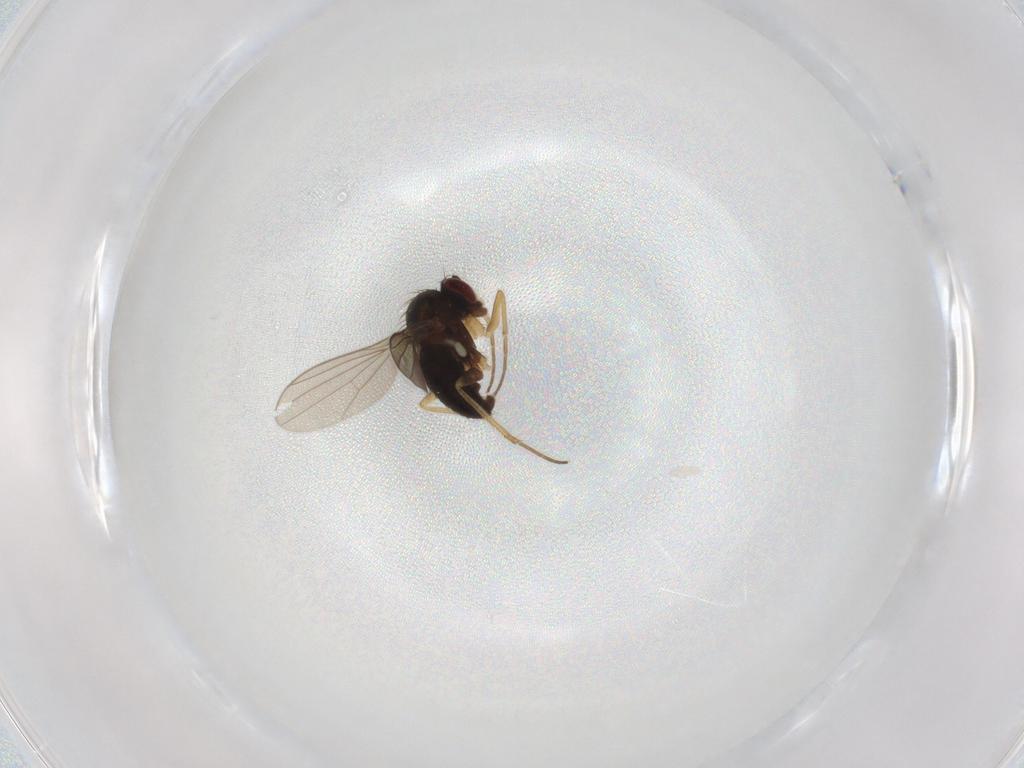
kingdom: Animalia
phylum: Arthropoda
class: Insecta
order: Diptera
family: Dolichopodidae
